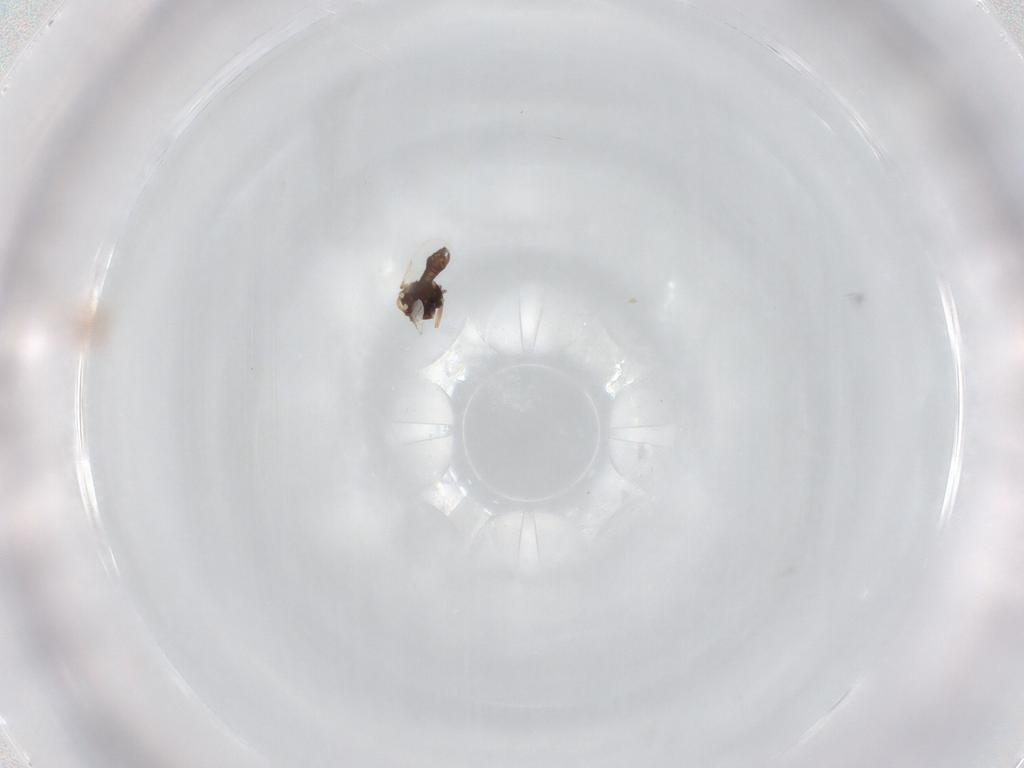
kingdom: Animalia
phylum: Arthropoda
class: Insecta
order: Diptera
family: Ceratopogonidae
